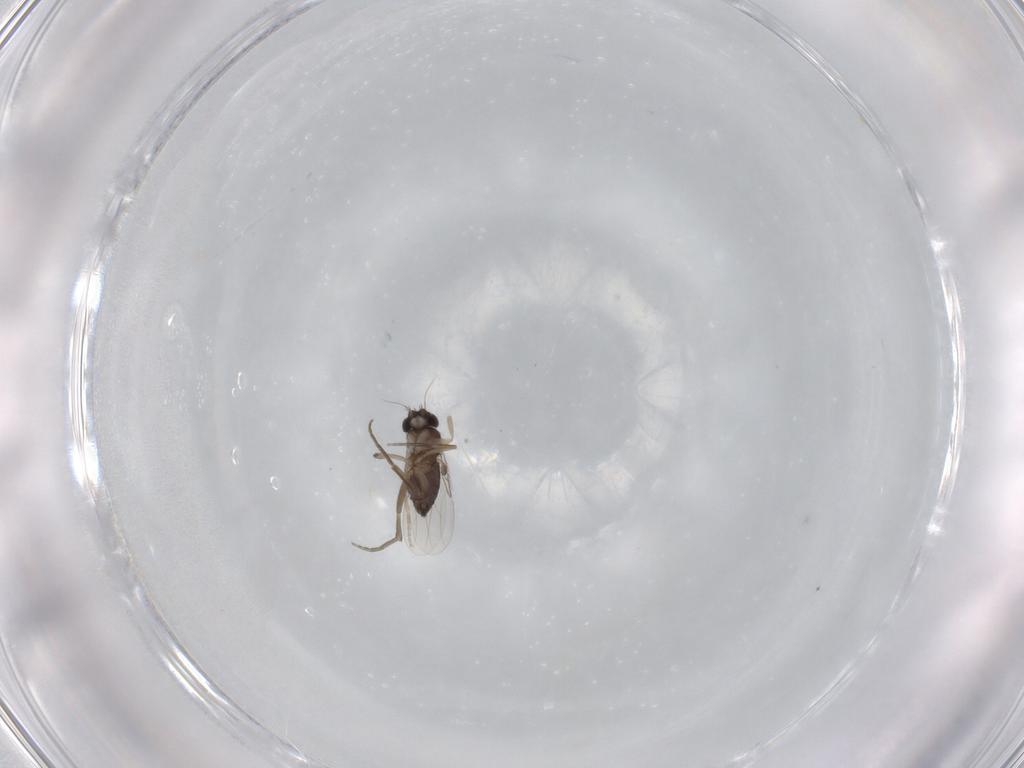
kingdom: Animalia
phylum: Arthropoda
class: Insecta
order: Diptera
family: Phoridae
